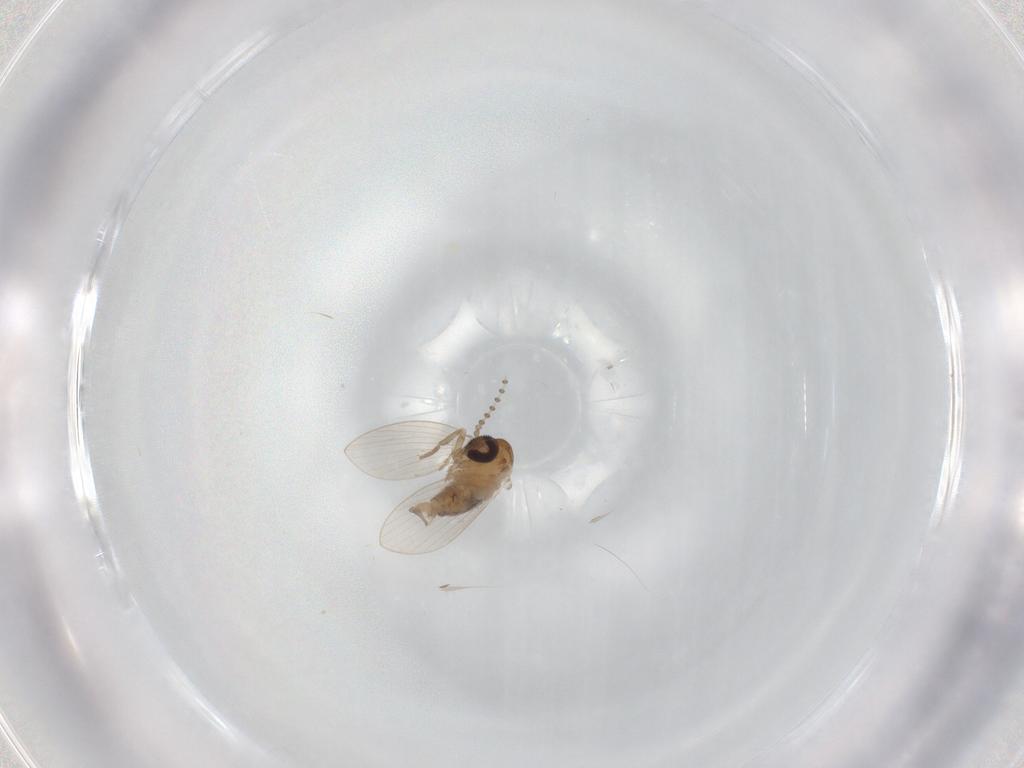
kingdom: Animalia
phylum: Arthropoda
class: Insecta
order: Diptera
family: Psychodidae
